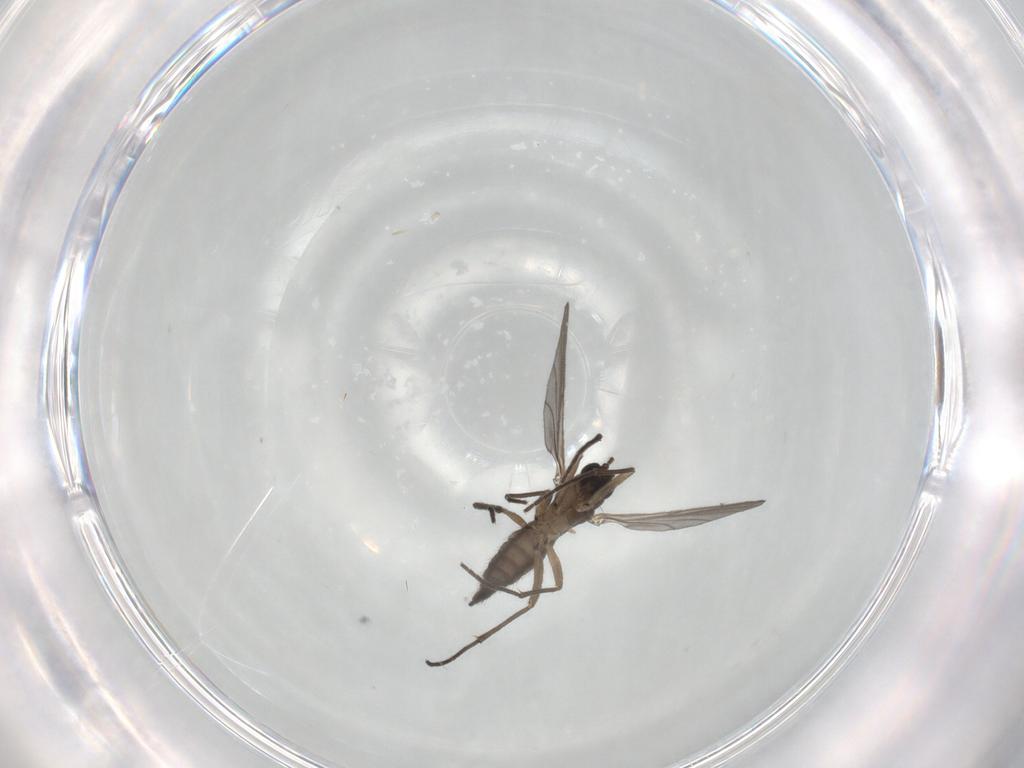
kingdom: Animalia
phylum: Arthropoda
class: Insecta
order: Diptera
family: Sciaridae
